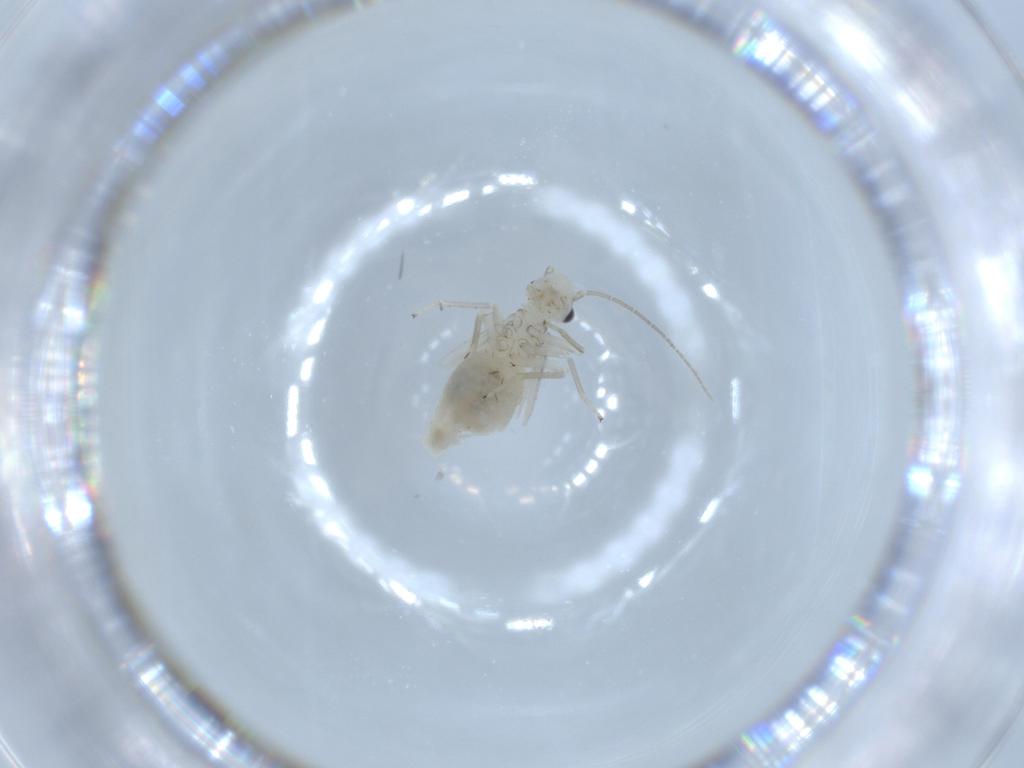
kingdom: Animalia
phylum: Arthropoda
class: Insecta
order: Psocodea
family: Caeciliusidae
